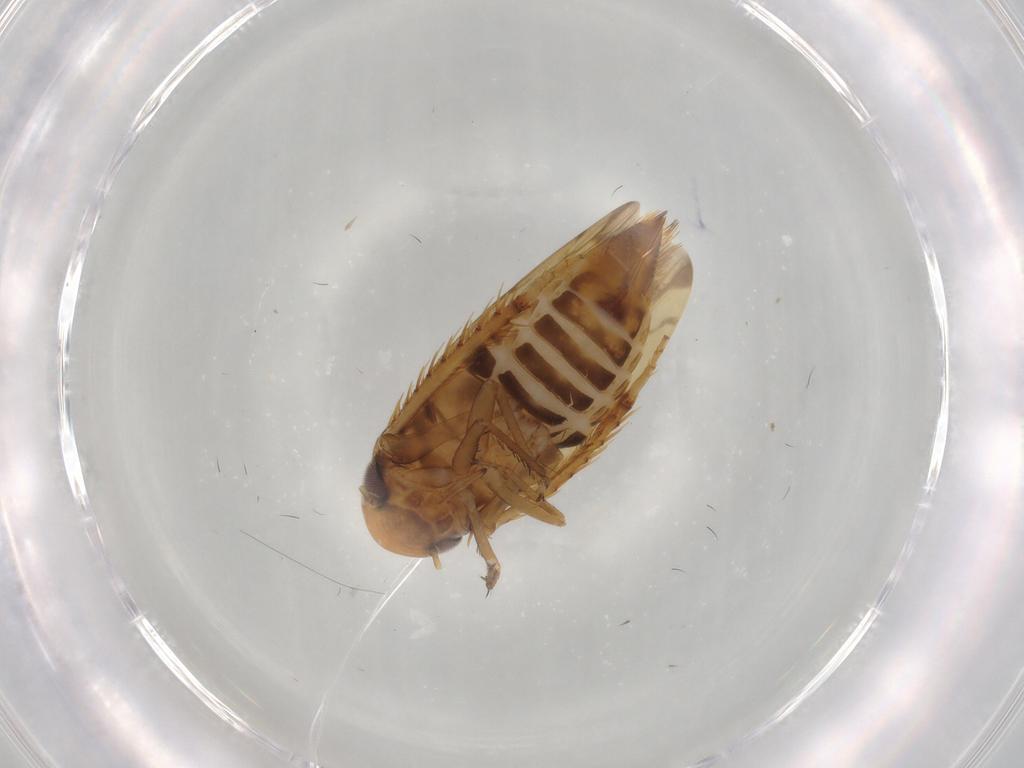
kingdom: Animalia
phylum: Arthropoda
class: Insecta
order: Hemiptera
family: Cicadellidae
